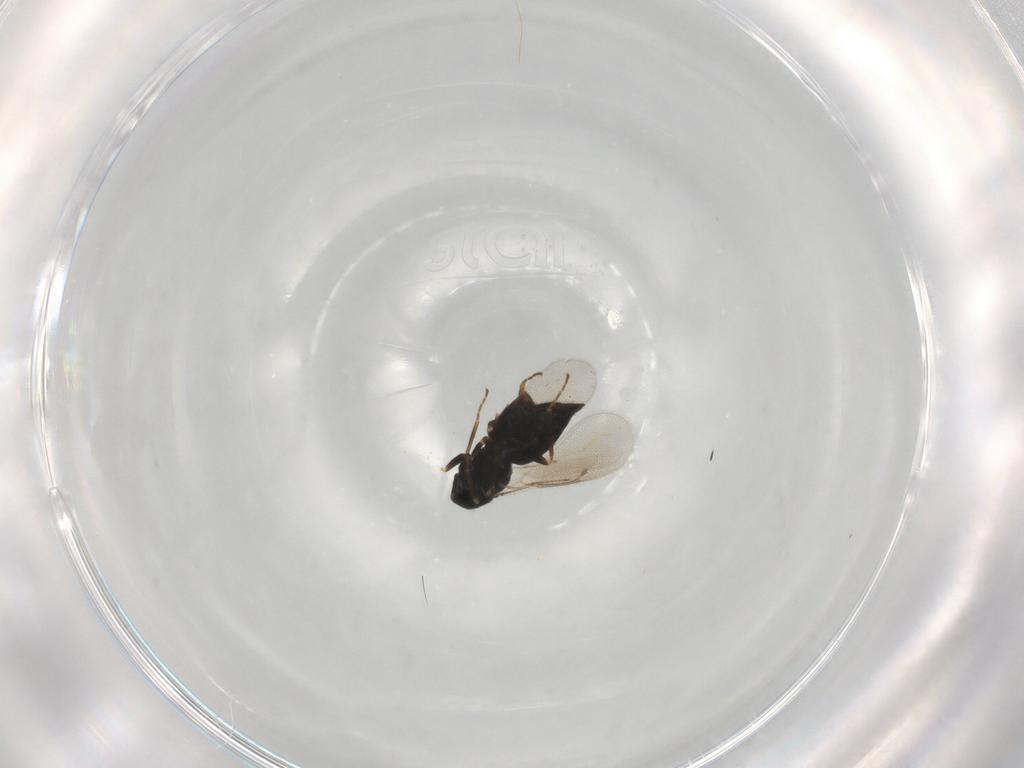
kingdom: Animalia
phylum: Arthropoda
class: Insecta
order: Hymenoptera
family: Eulophidae
